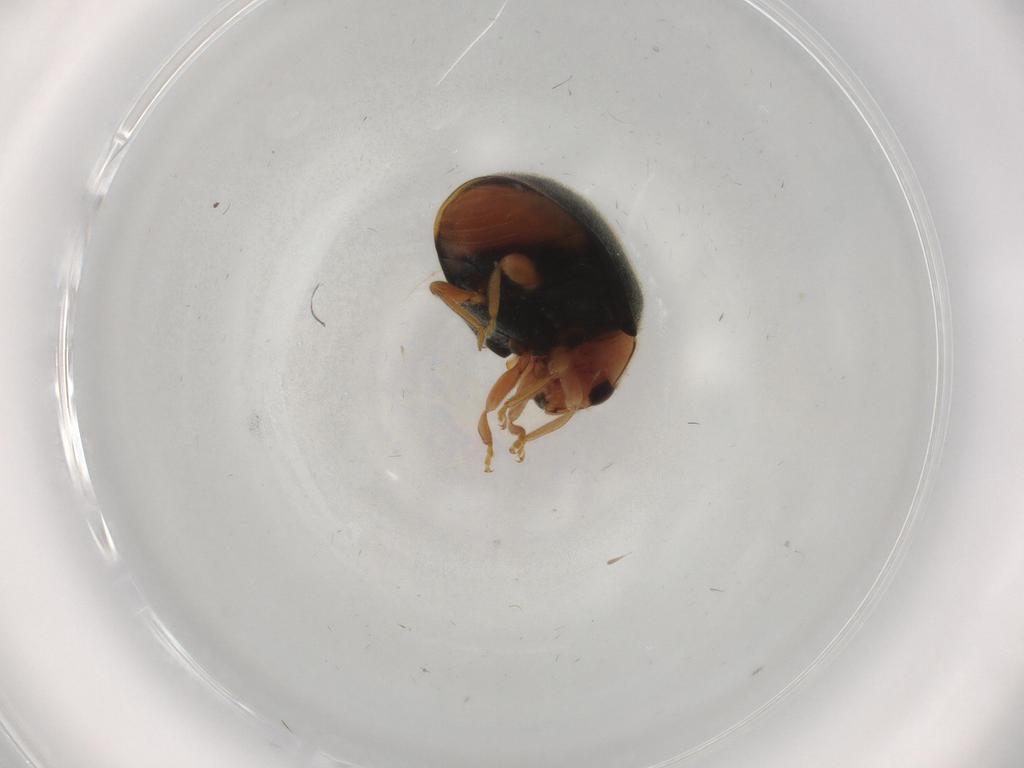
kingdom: Animalia
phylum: Arthropoda
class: Insecta
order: Coleoptera
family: Coccinellidae
